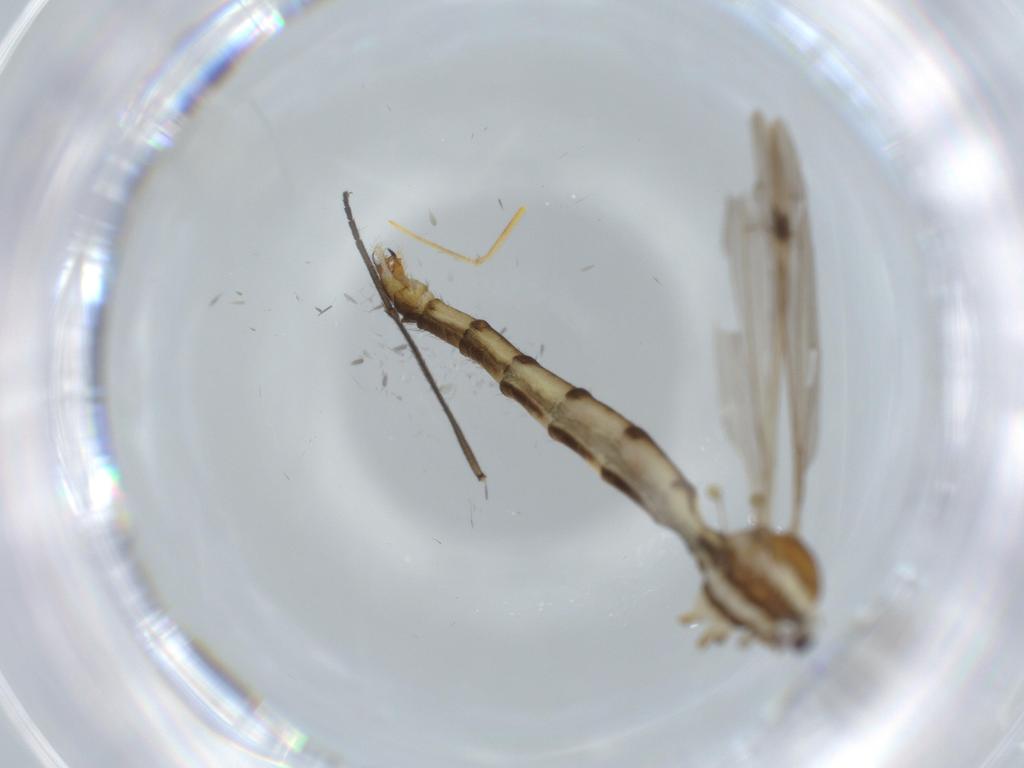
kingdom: Animalia
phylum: Arthropoda
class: Insecta
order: Diptera
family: Limoniidae
